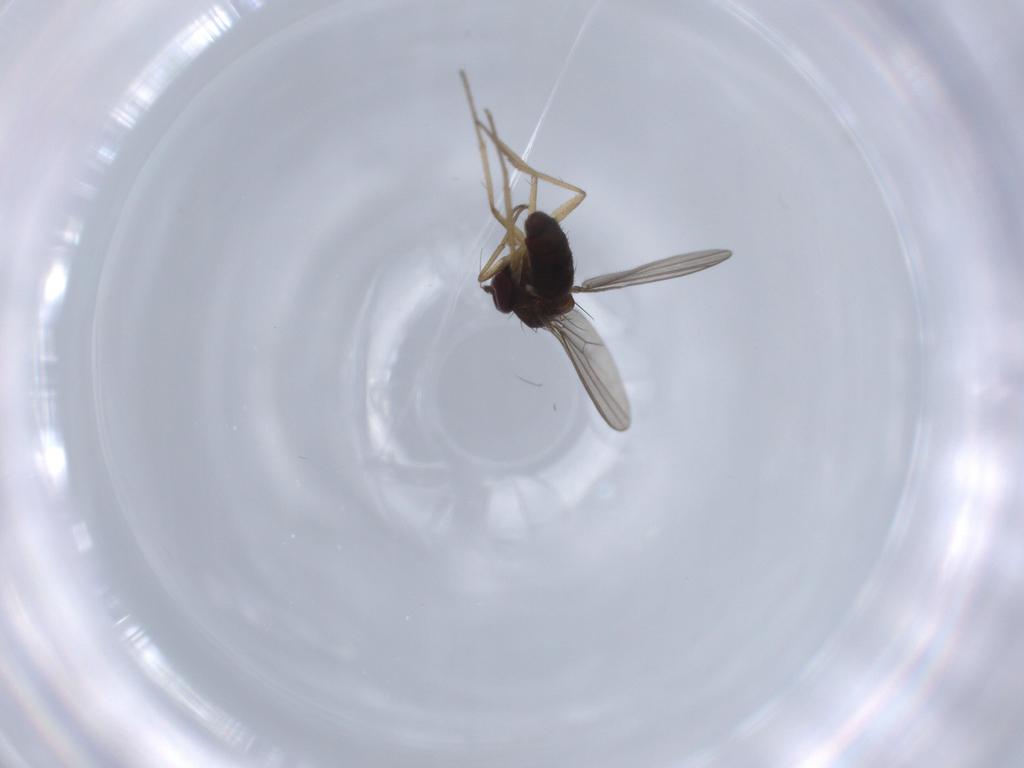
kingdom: Animalia
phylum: Arthropoda
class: Insecta
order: Diptera
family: Dolichopodidae
